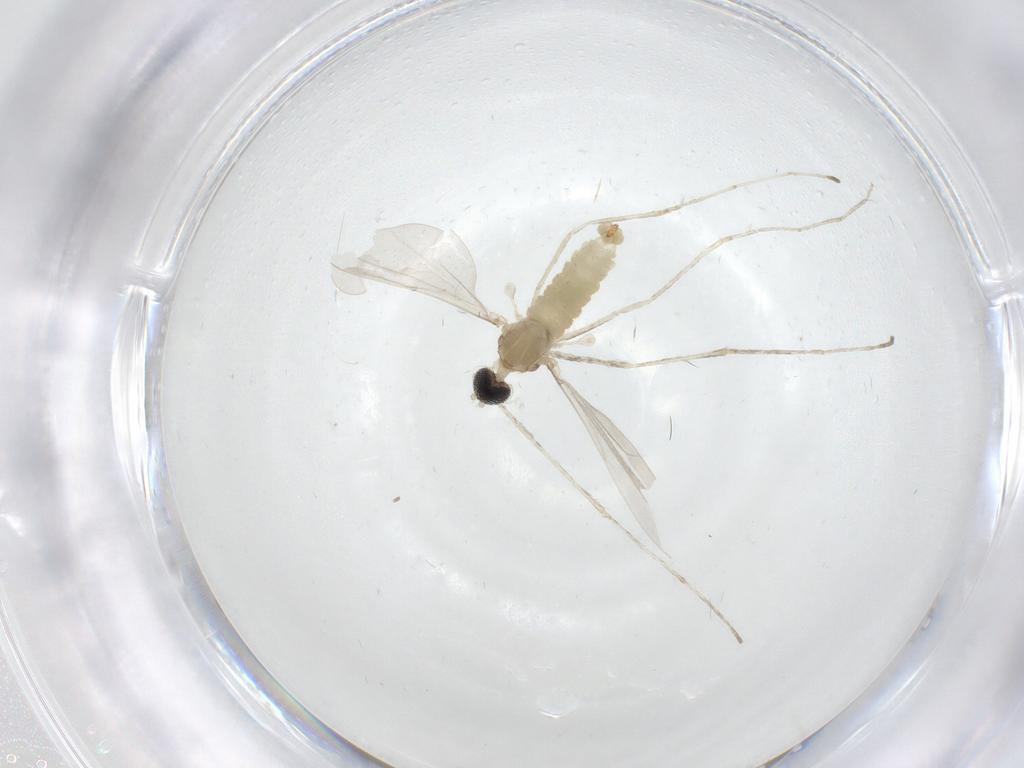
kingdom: Animalia
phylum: Arthropoda
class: Insecta
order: Diptera
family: Cecidomyiidae
